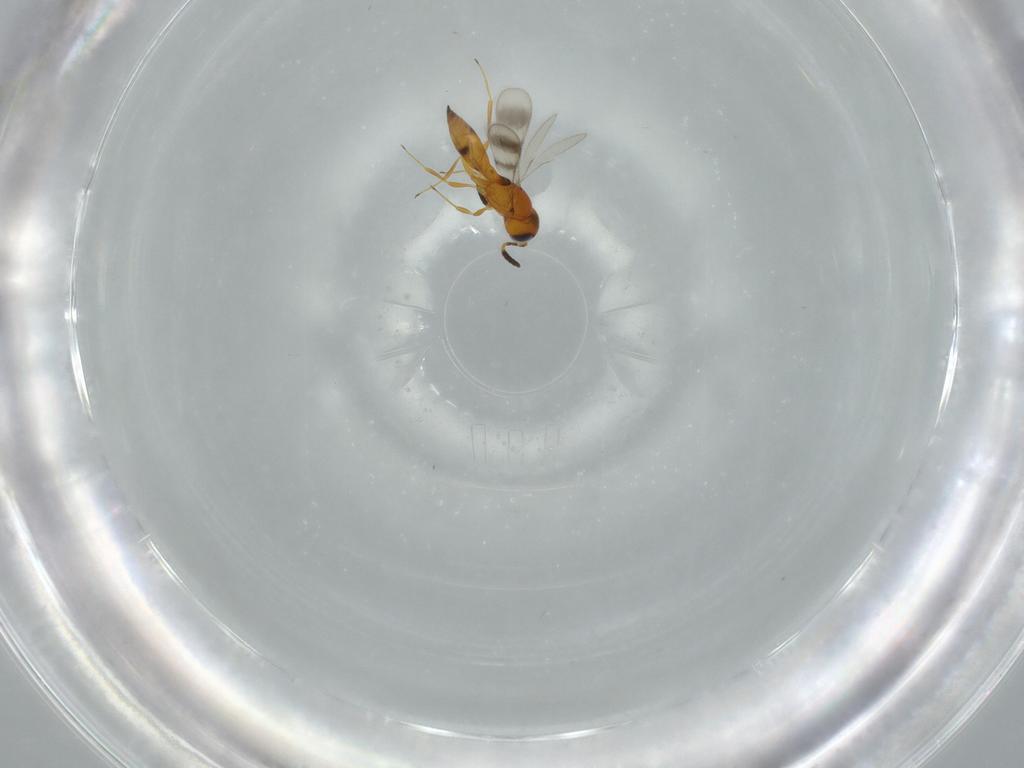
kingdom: Animalia
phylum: Arthropoda
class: Insecta
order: Hymenoptera
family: Scelionidae
